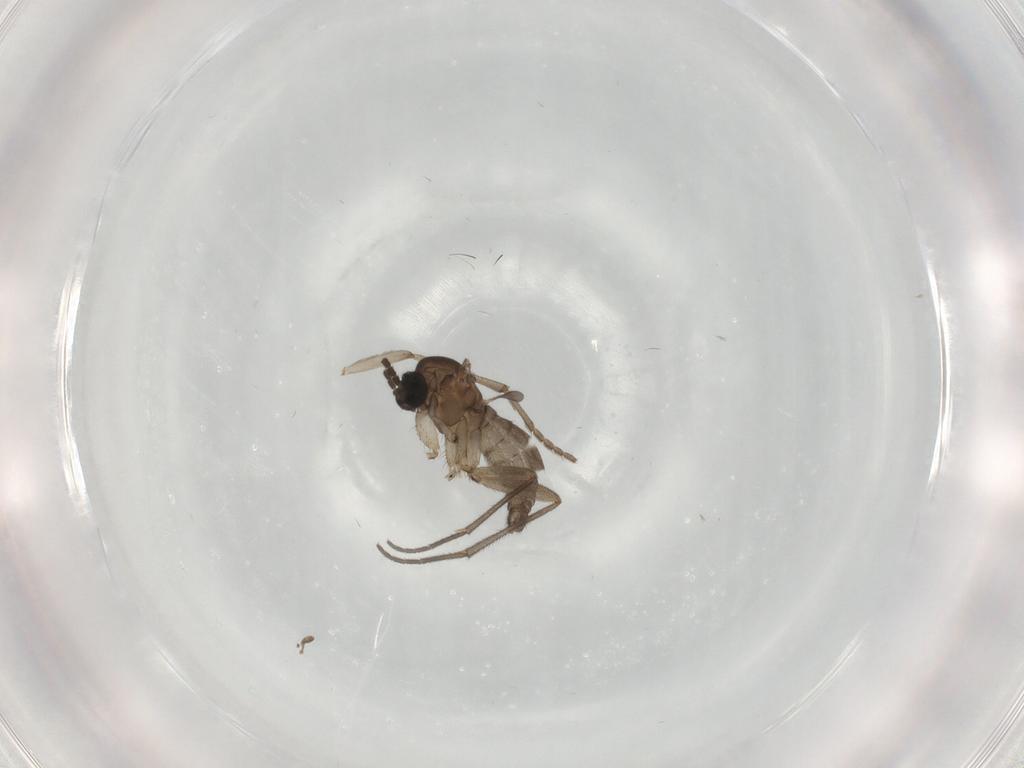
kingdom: Animalia
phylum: Arthropoda
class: Insecta
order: Diptera
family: Sciaridae
